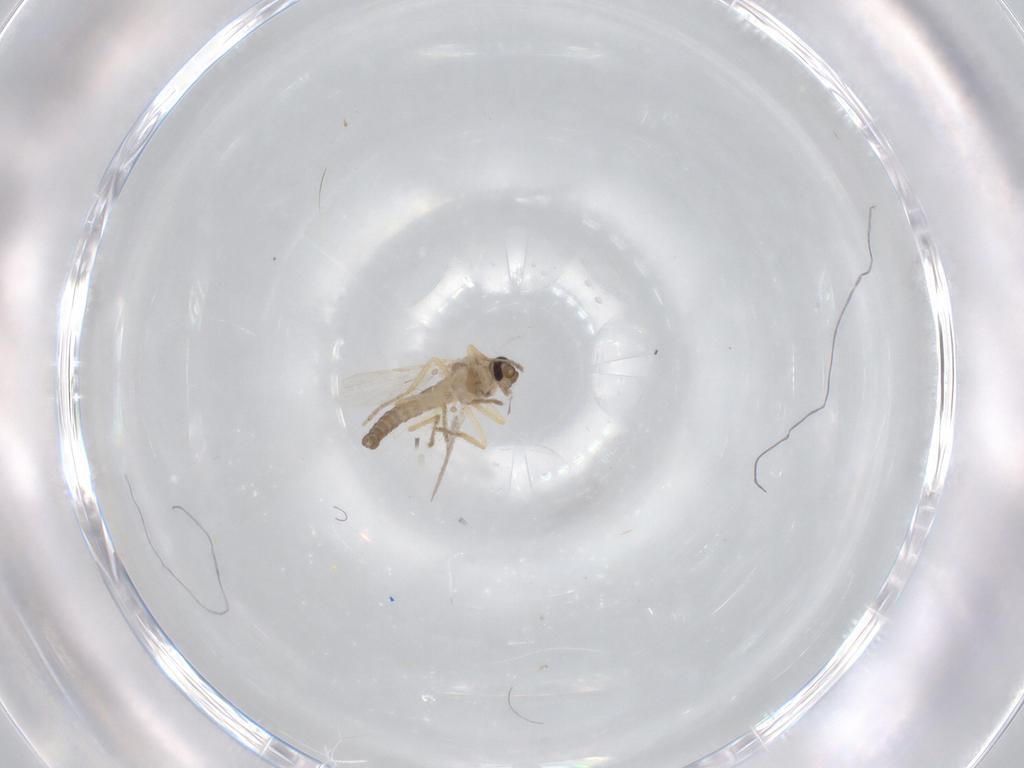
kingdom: Animalia
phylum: Arthropoda
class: Insecta
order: Diptera
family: Ceratopogonidae
